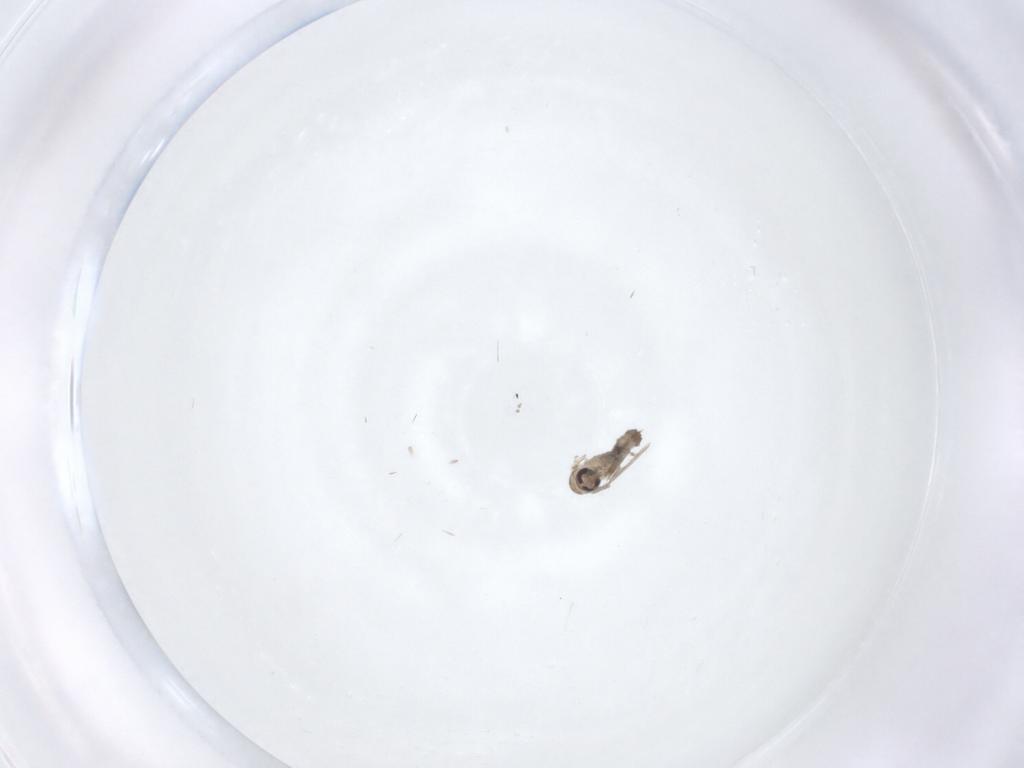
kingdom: Animalia
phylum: Arthropoda
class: Insecta
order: Diptera
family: Psychodidae
